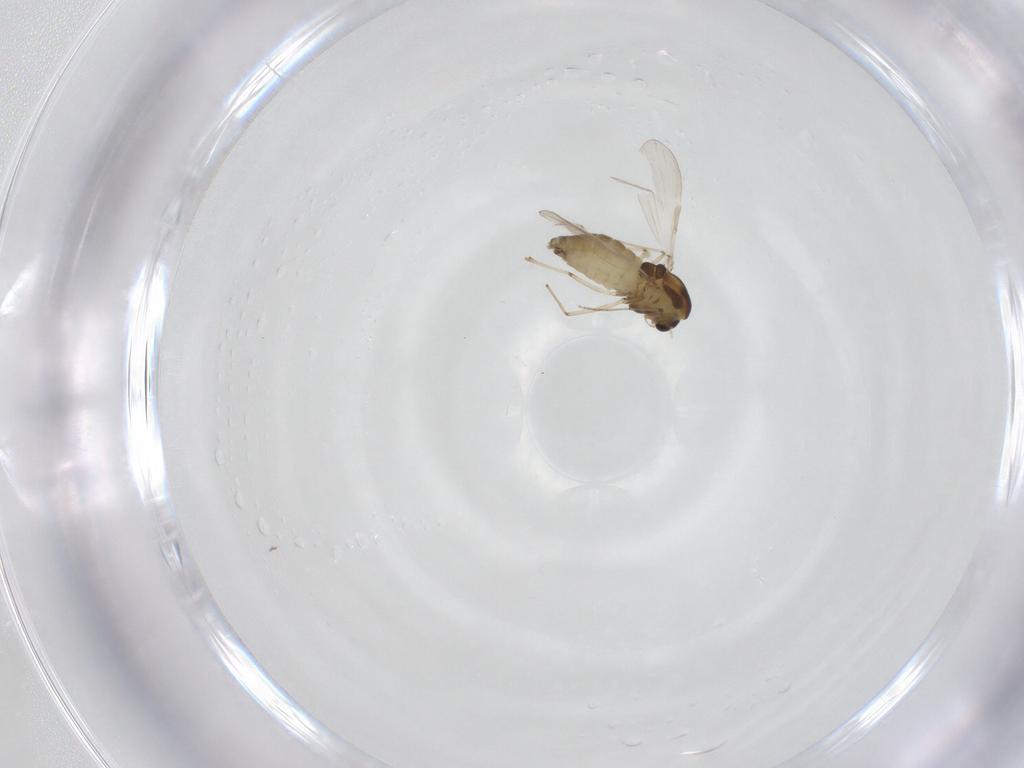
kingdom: Animalia
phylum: Arthropoda
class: Insecta
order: Diptera
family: Chironomidae
